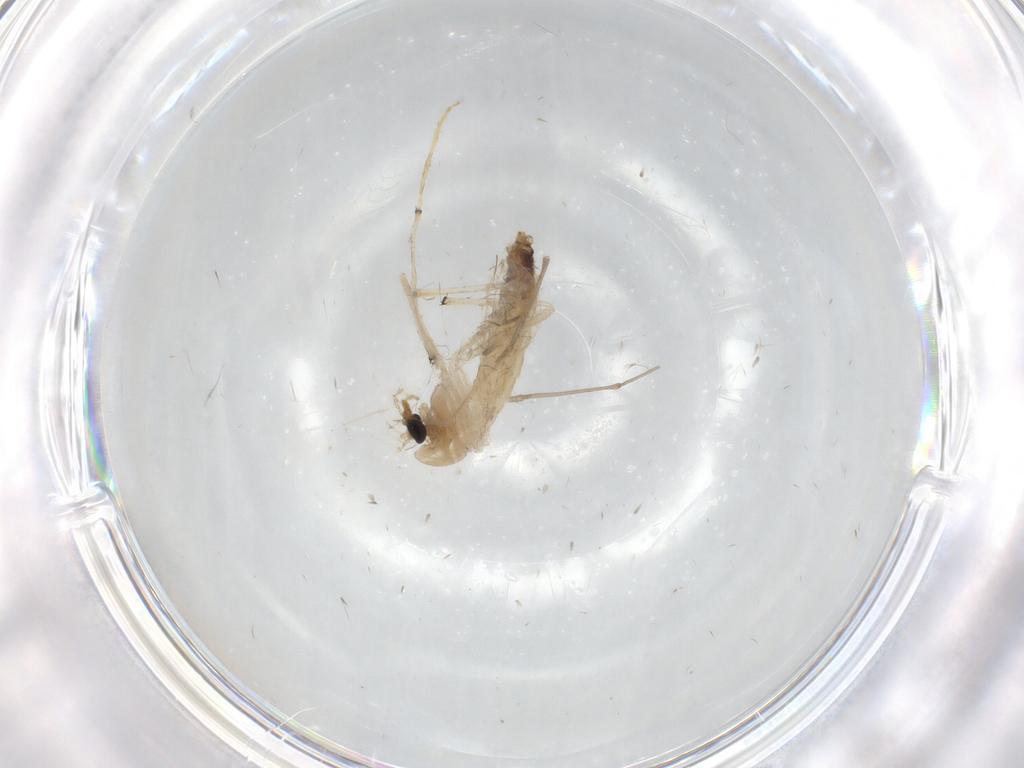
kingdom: Animalia
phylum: Arthropoda
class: Insecta
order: Diptera
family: Chironomidae
